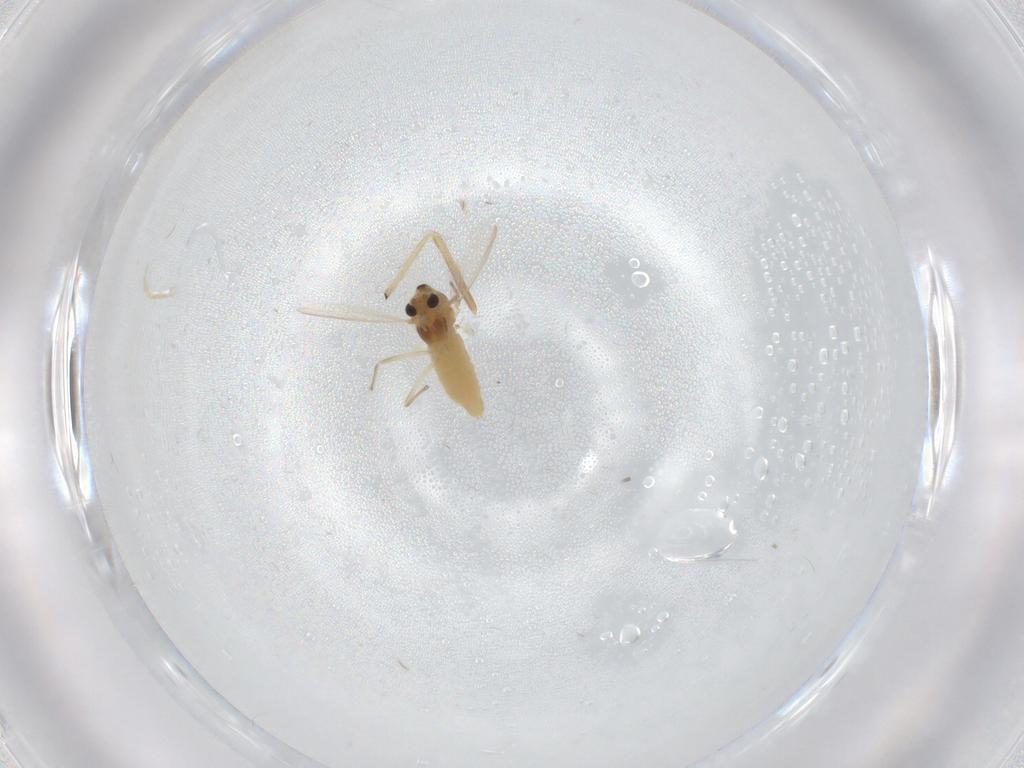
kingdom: Animalia
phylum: Arthropoda
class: Insecta
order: Diptera
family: Chironomidae
